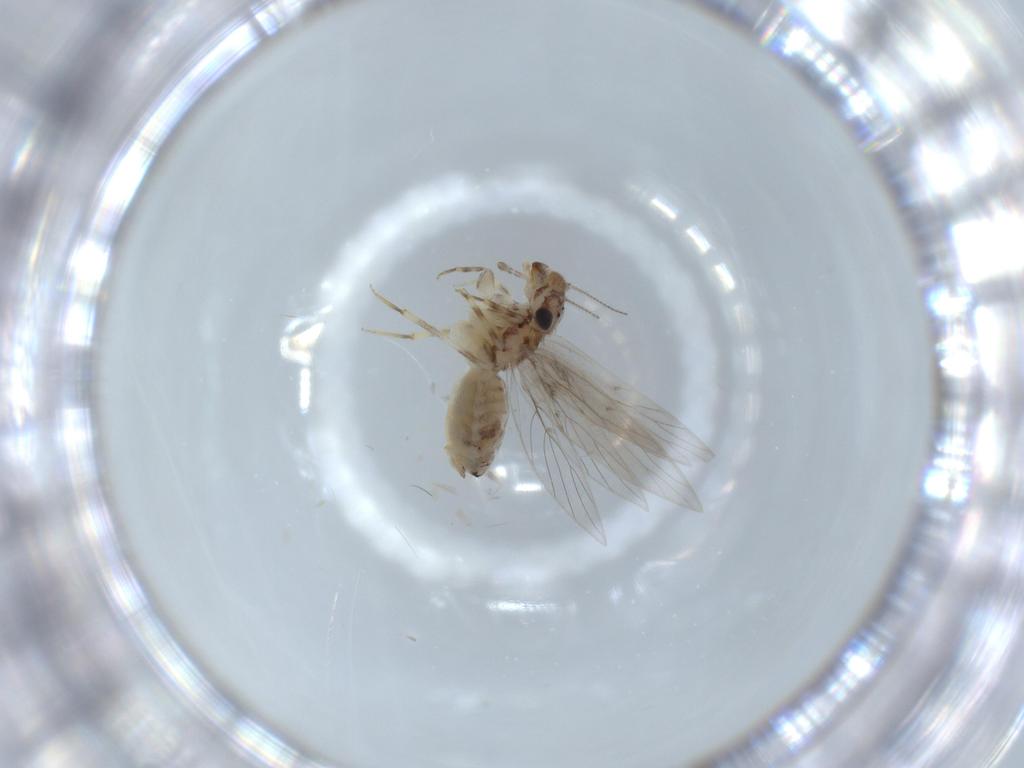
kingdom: Animalia
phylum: Arthropoda
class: Insecta
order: Psocodea
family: Lepidopsocidae
